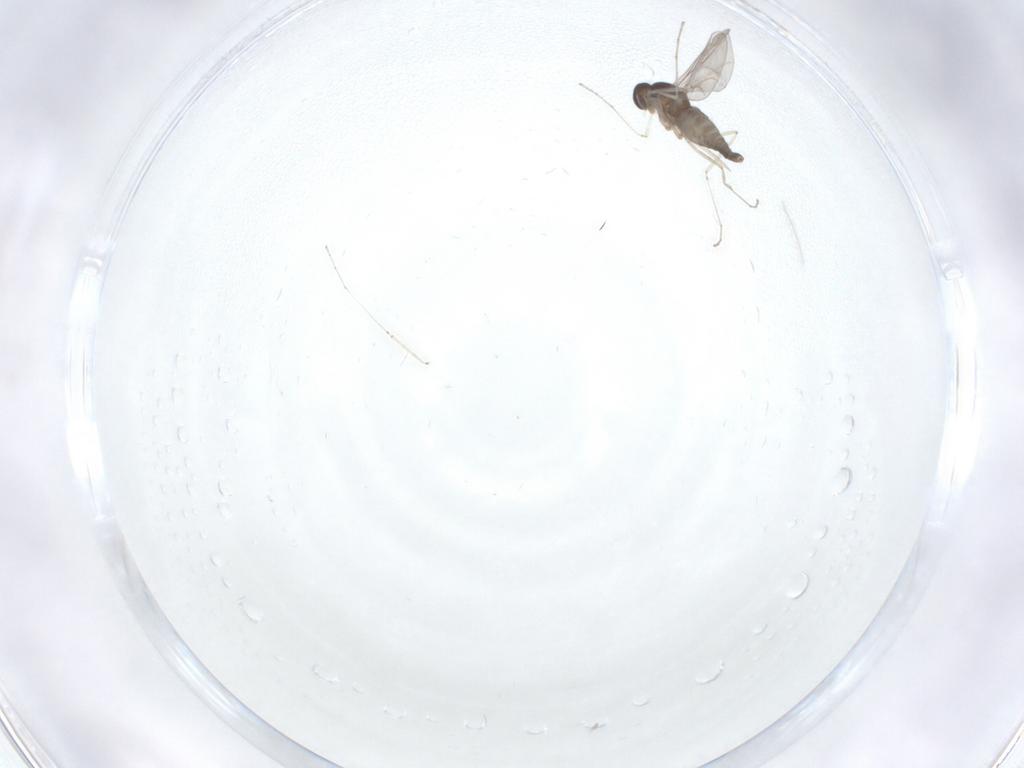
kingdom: Animalia
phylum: Arthropoda
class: Insecta
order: Diptera
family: Cecidomyiidae
